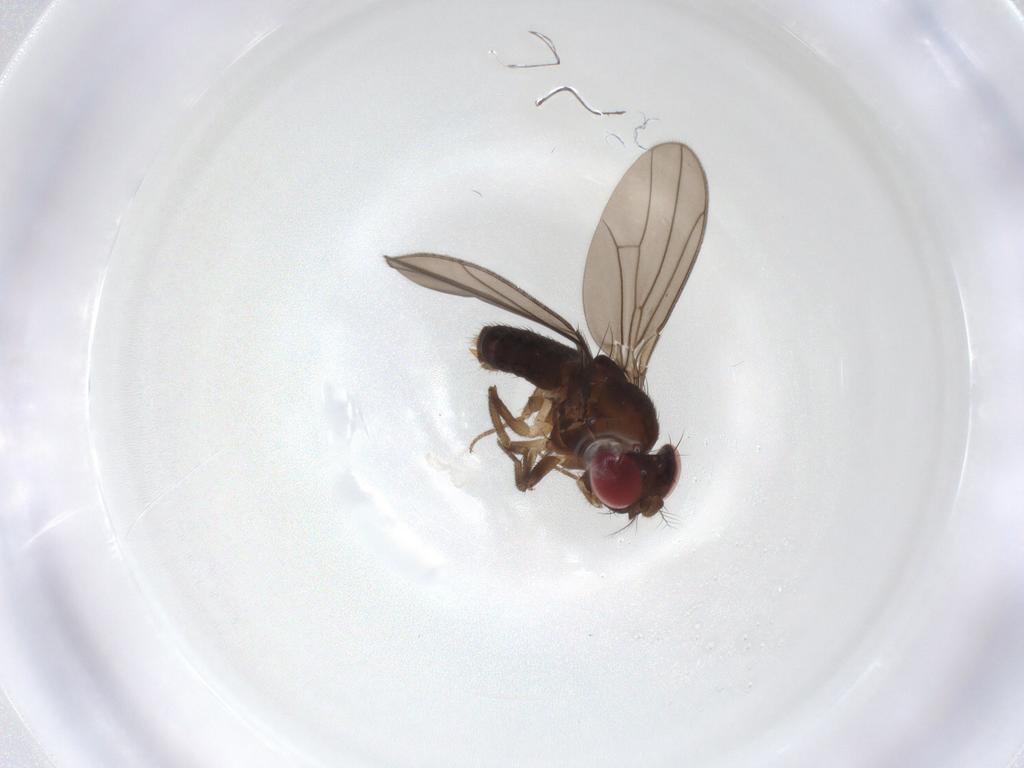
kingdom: Animalia
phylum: Arthropoda
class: Insecta
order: Diptera
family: Drosophilidae
